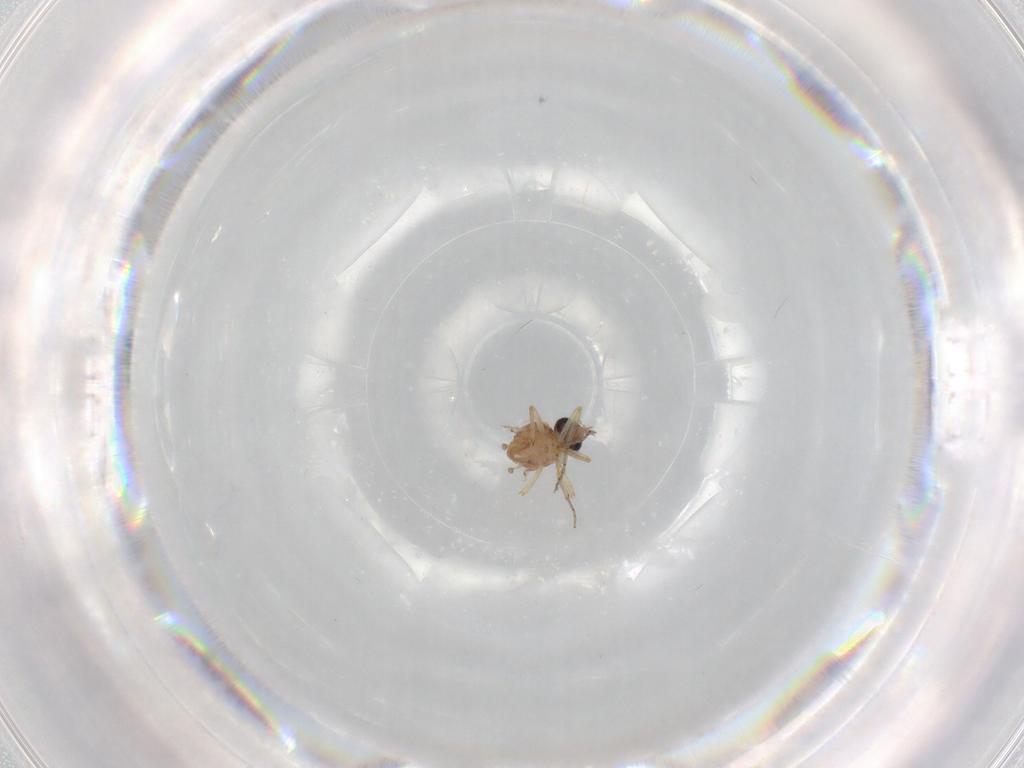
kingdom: Animalia
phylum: Arthropoda
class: Insecta
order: Diptera
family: Ceratopogonidae
